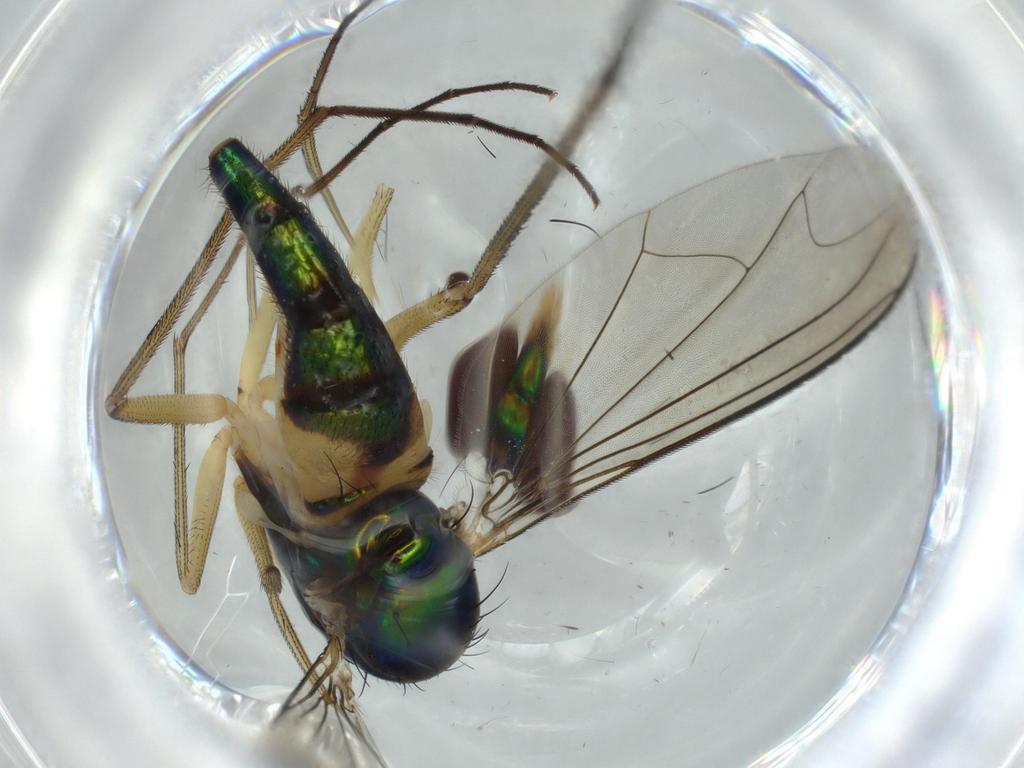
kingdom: Animalia
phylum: Arthropoda
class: Insecta
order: Diptera
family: Dolichopodidae
